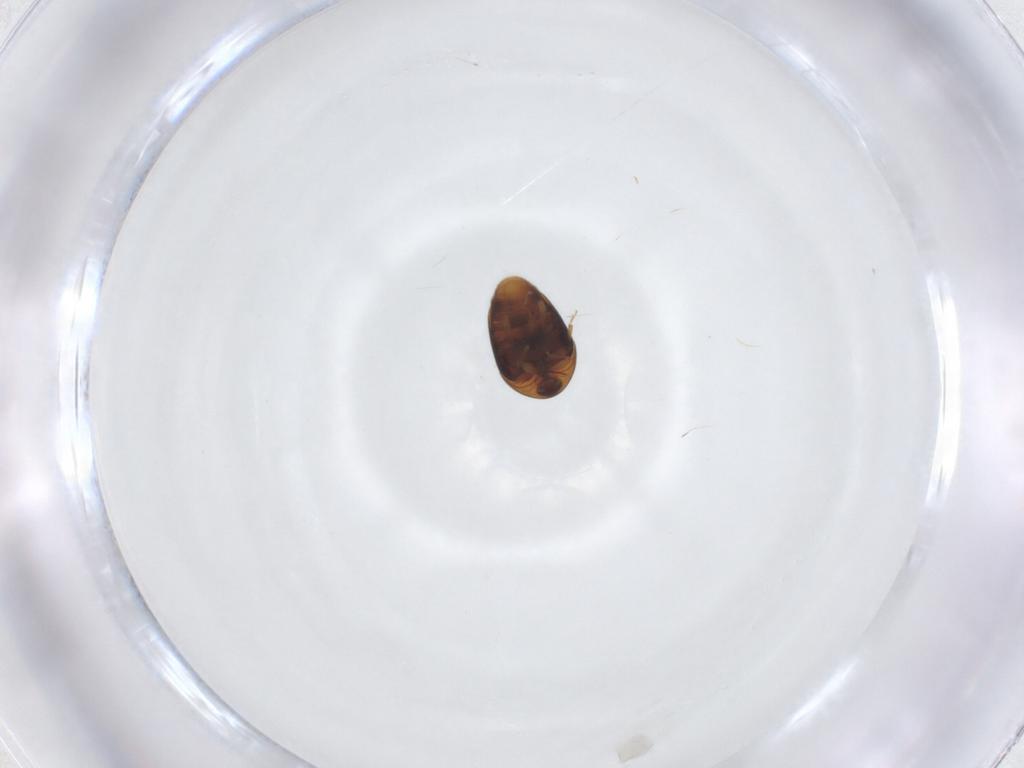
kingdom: Animalia
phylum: Arthropoda
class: Insecta
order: Coleoptera
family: Corylophidae
